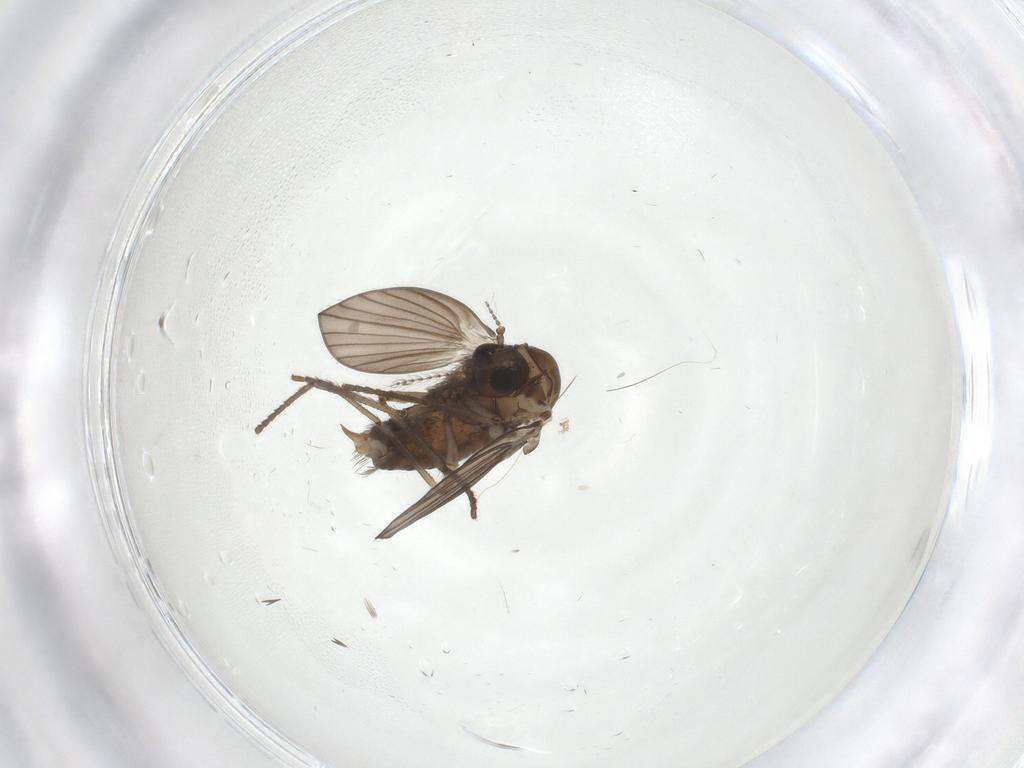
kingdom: Animalia
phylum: Arthropoda
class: Insecta
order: Diptera
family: Psychodidae
